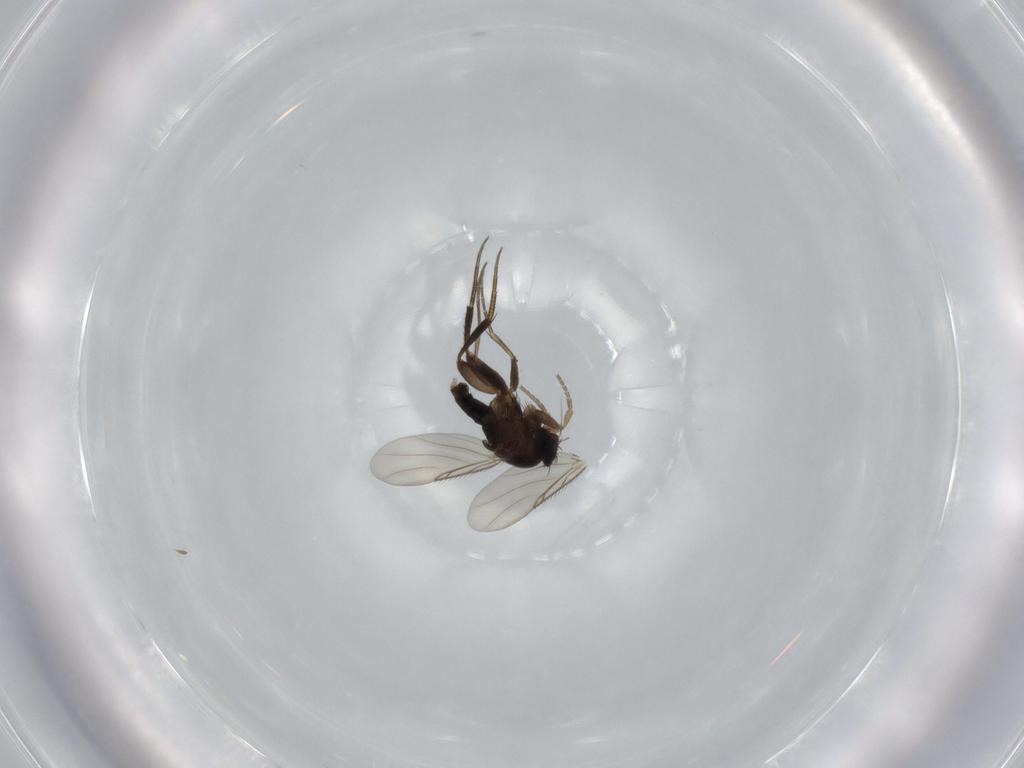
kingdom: Animalia
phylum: Arthropoda
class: Insecta
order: Diptera
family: Phoridae
